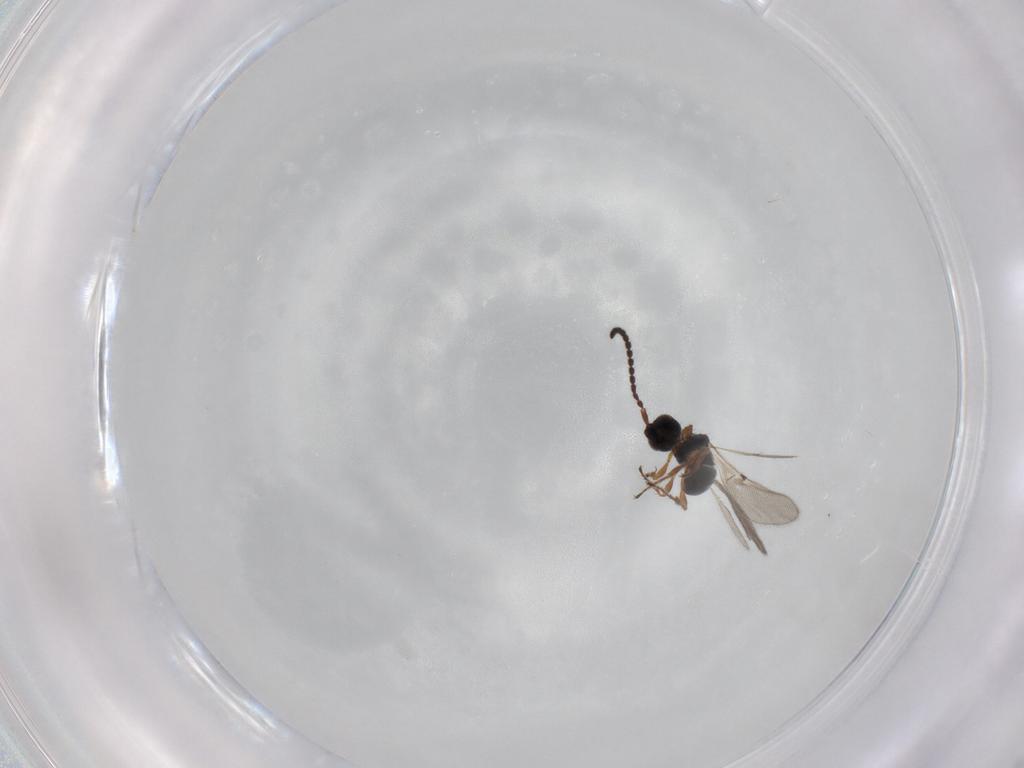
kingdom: Animalia
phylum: Arthropoda
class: Insecta
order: Hymenoptera
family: Diapriidae
